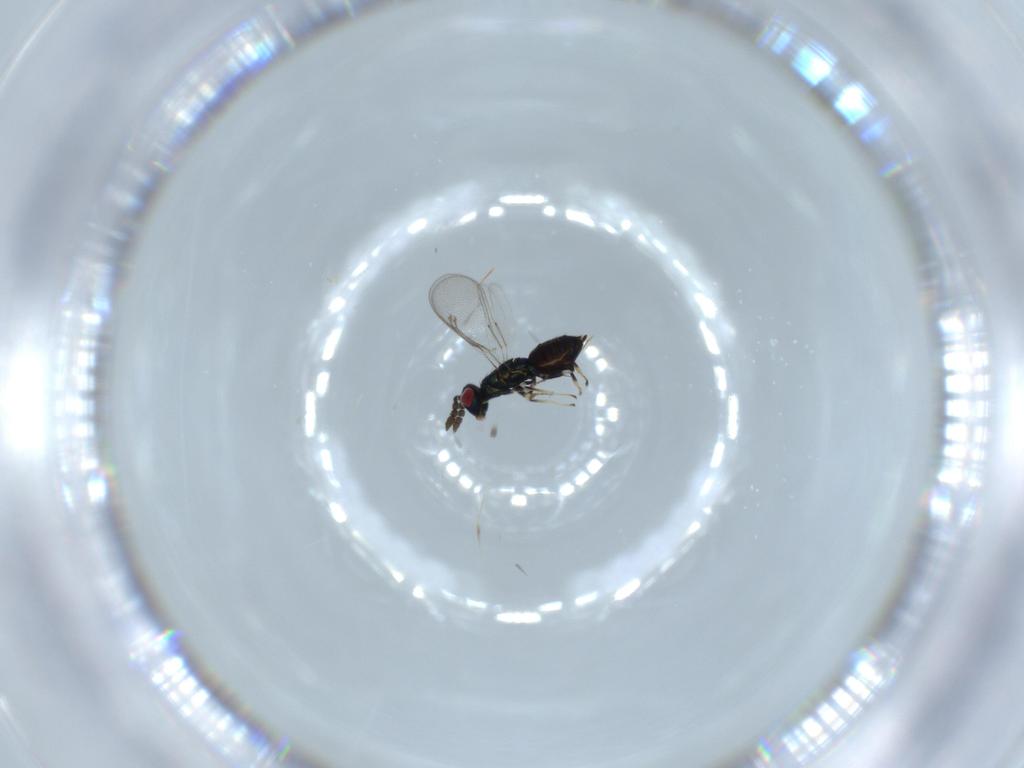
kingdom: Animalia
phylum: Arthropoda
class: Insecta
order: Hymenoptera
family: Eulophidae
